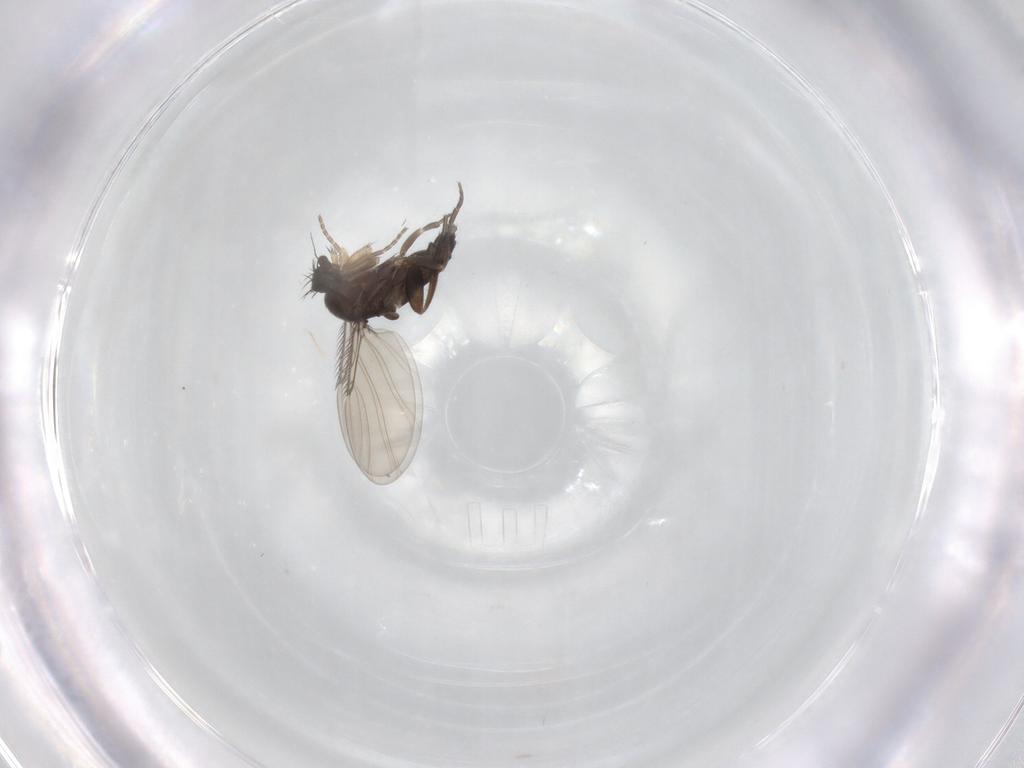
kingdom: Animalia
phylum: Arthropoda
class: Insecta
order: Diptera
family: Phoridae
